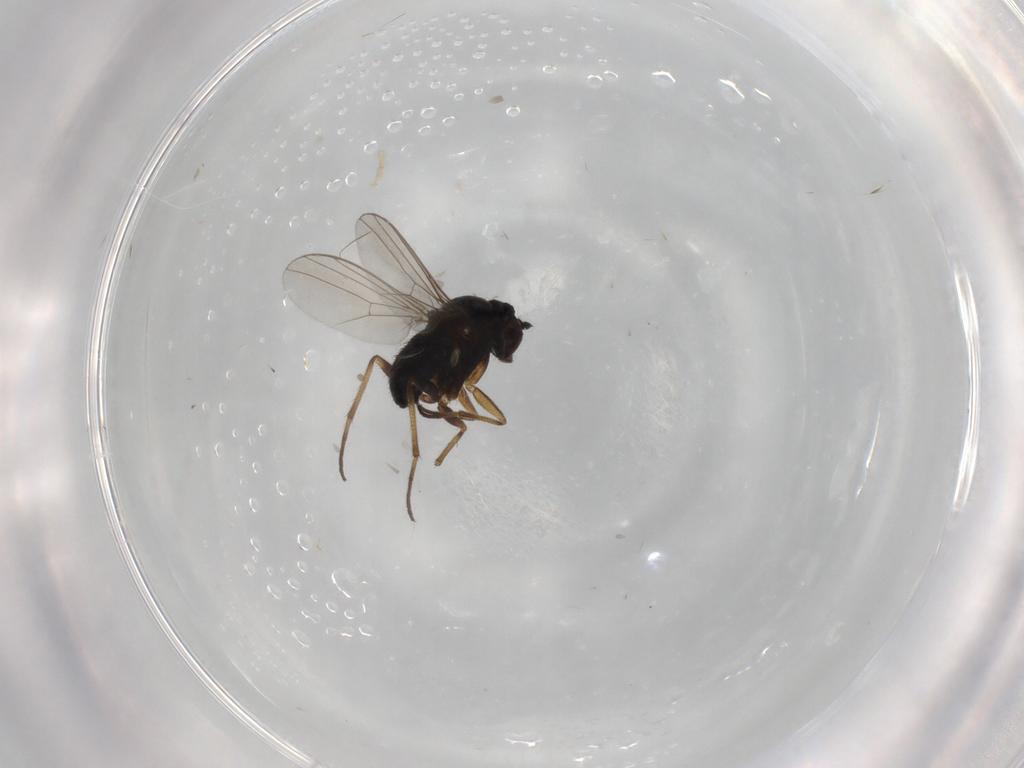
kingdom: Animalia
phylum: Arthropoda
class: Insecta
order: Diptera
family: Dolichopodidae
